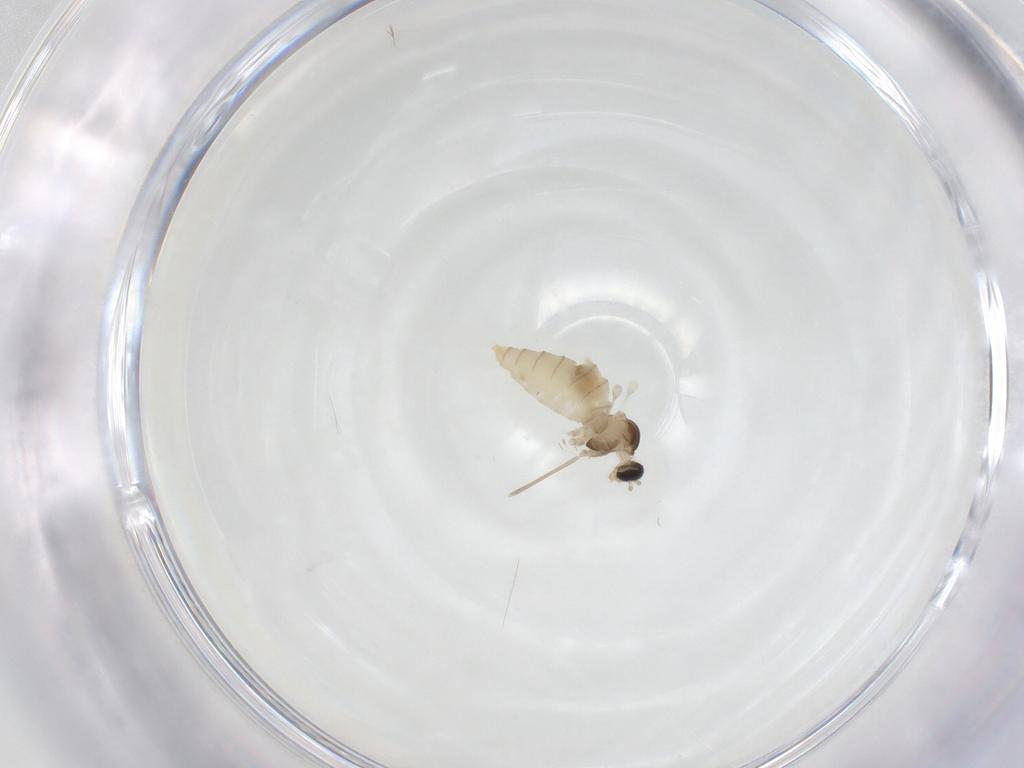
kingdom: Animalia
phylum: Arthropoda
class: Insecta
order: Diptera
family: Cecidomyiidae
